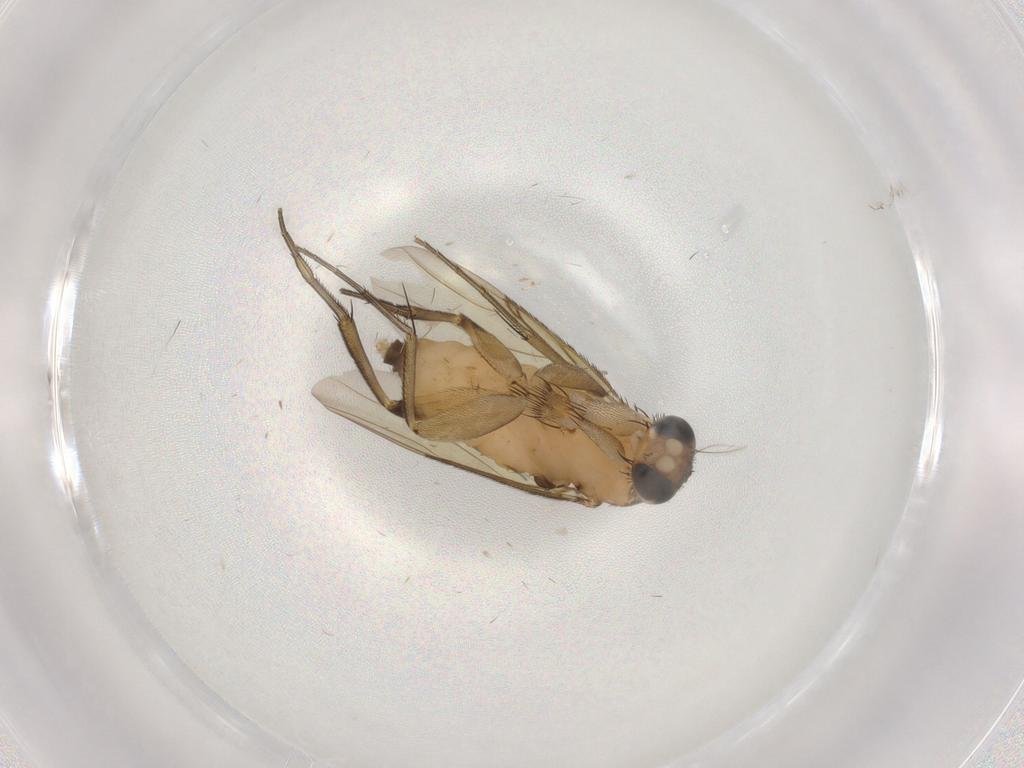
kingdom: Animalia
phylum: Arthropoda
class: Insecta
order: Diptera
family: Phoridae
